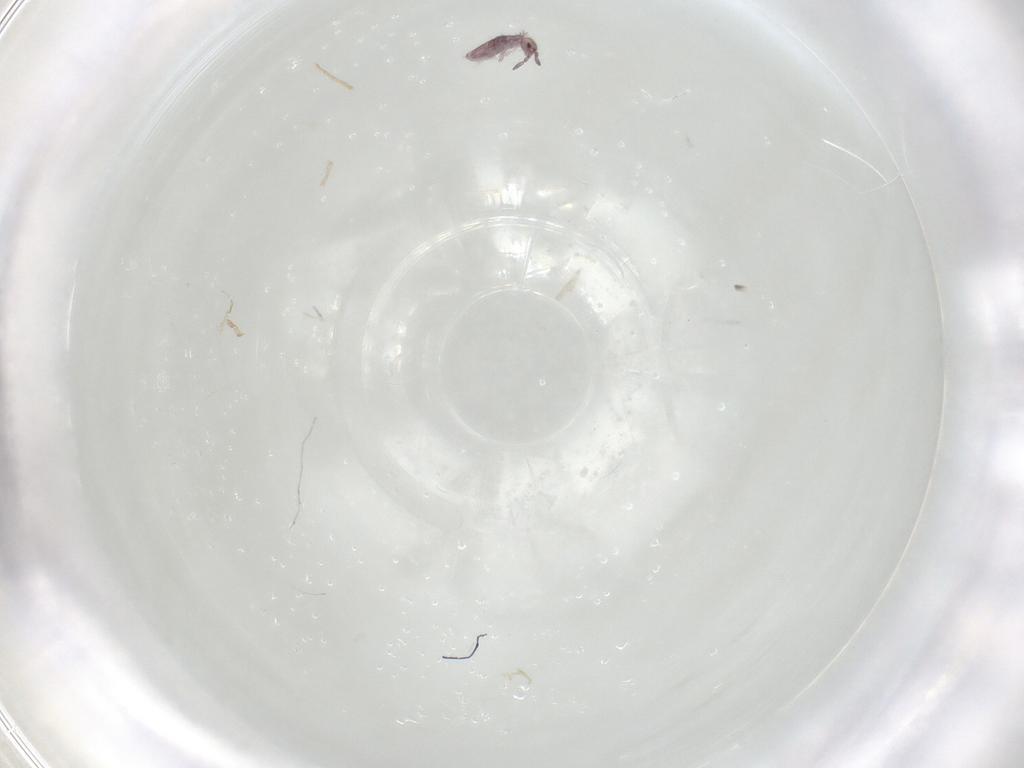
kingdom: Animalia
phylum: Arthropoda
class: Collembola
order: Entomobryomorpha
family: Entomobryidae
